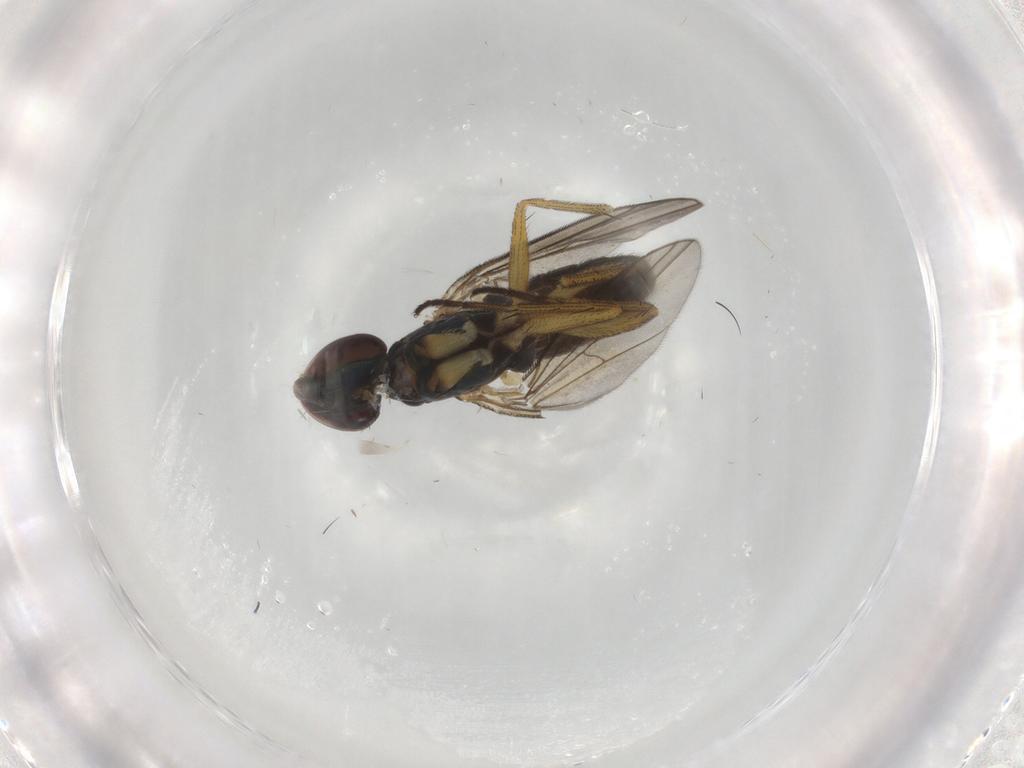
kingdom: Animalia
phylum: Arthropoda
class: Insecta
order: Diptera
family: Dolichopodidae
